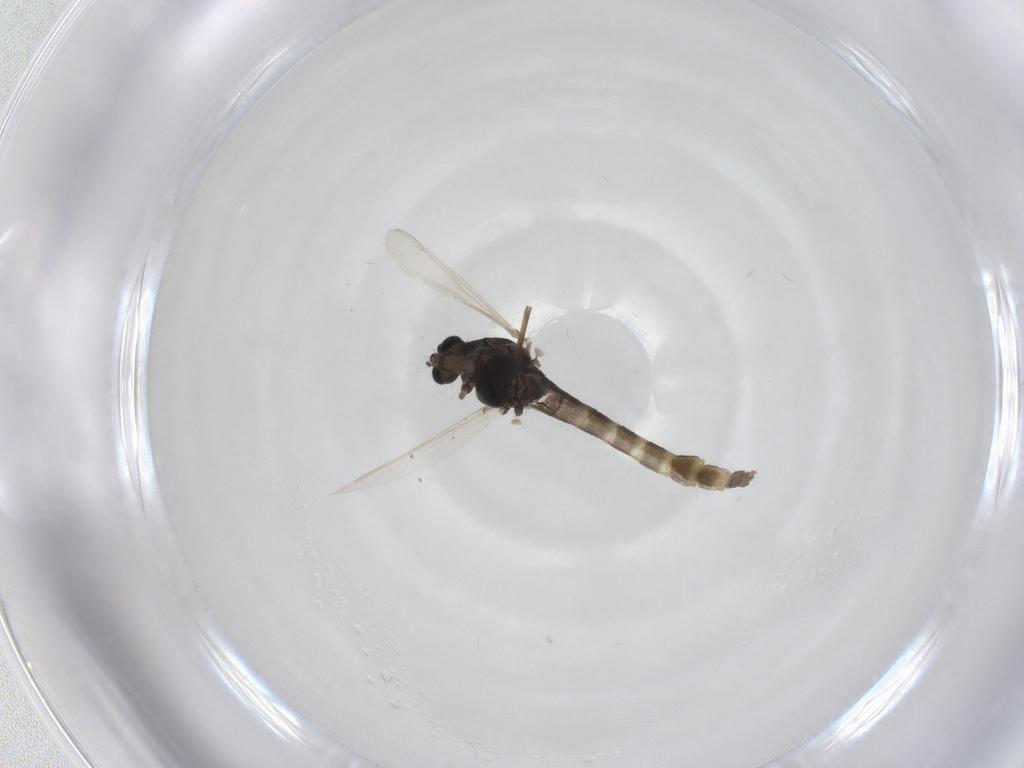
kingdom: Animalia
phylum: Arthropoda
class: Insecta
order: Diptera
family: Chironomidae
